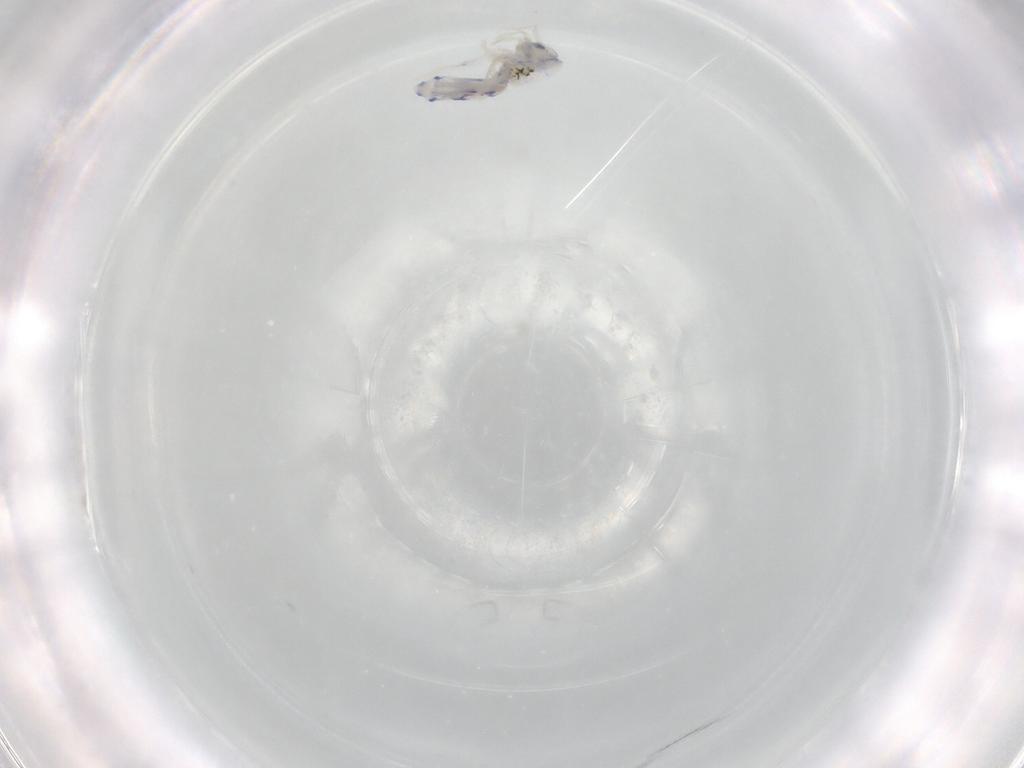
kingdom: Animalia
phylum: Arthropoda
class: Collembola
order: Entomobryomorpha
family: Entomobryidae
